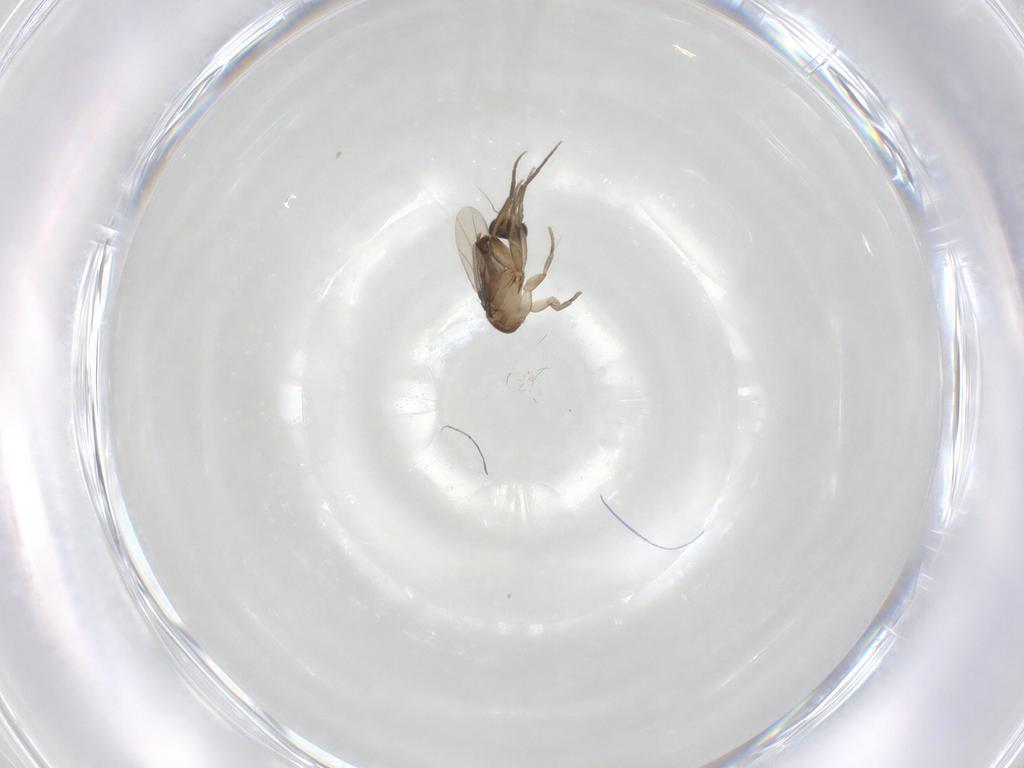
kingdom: Animalia
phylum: Arthropoda
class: Insecta
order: Diptera
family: Phoridae
